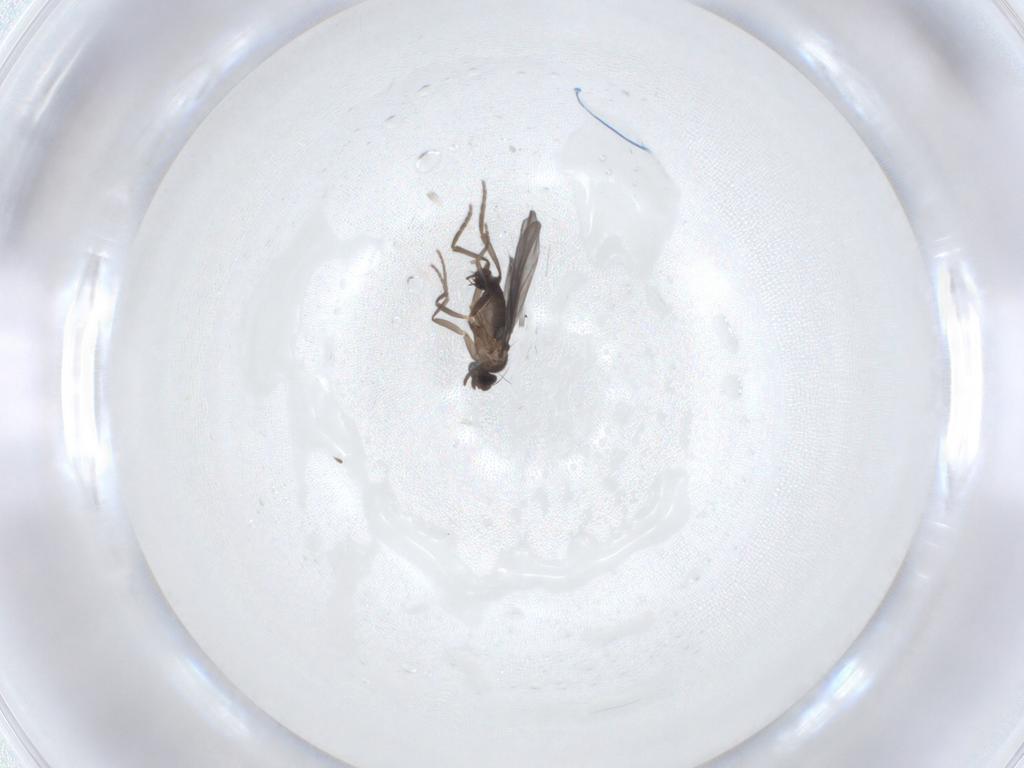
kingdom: Animalia
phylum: Arthropoda
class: Insecta
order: Diptera
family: Phoridae
